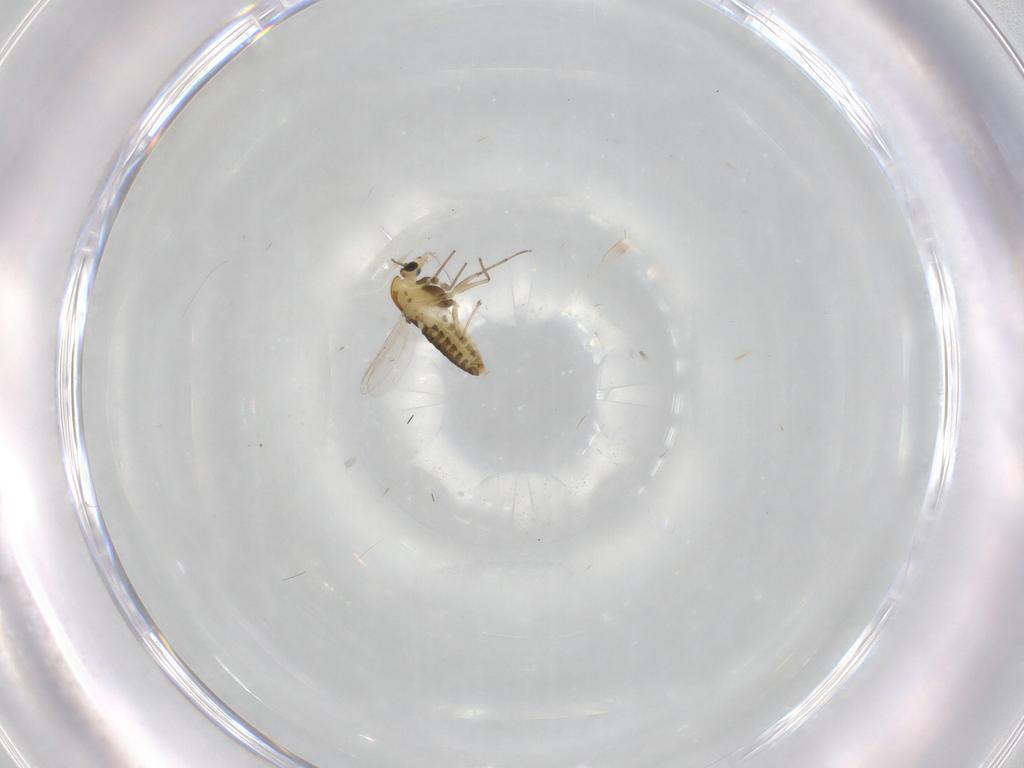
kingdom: Animalia
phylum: Arthropoda
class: Insecta
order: Diptera
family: Chironomidae
